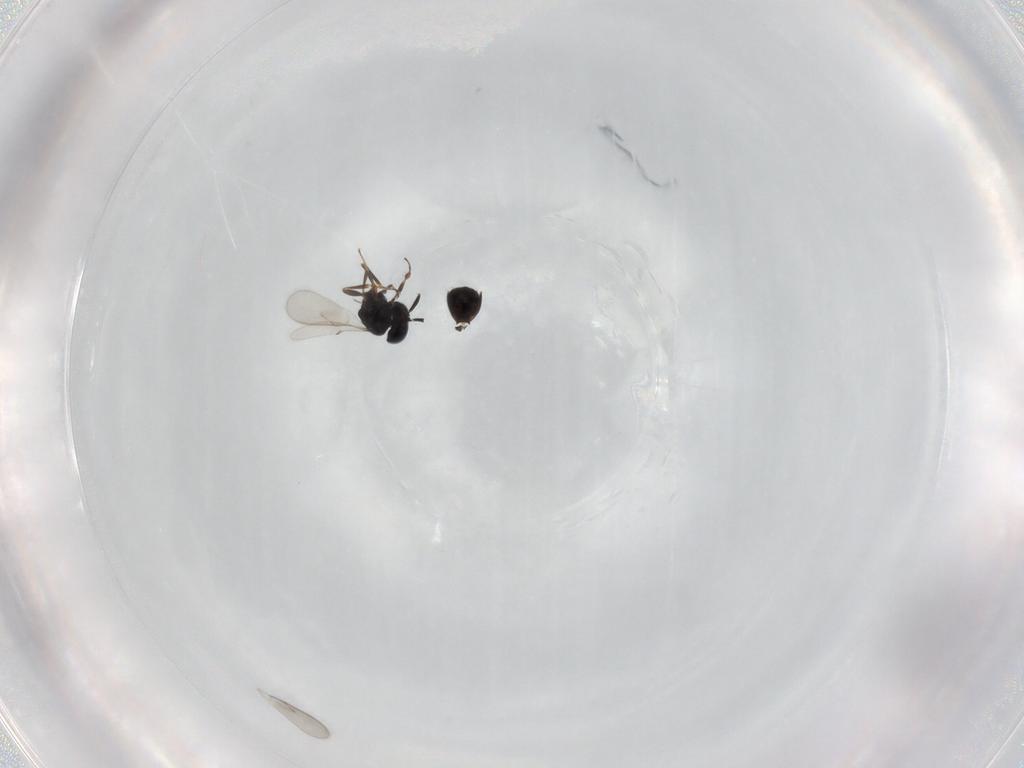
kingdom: Animalia
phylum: Arthropoda
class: Insecta
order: Hymenoptera
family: Scelionidae
